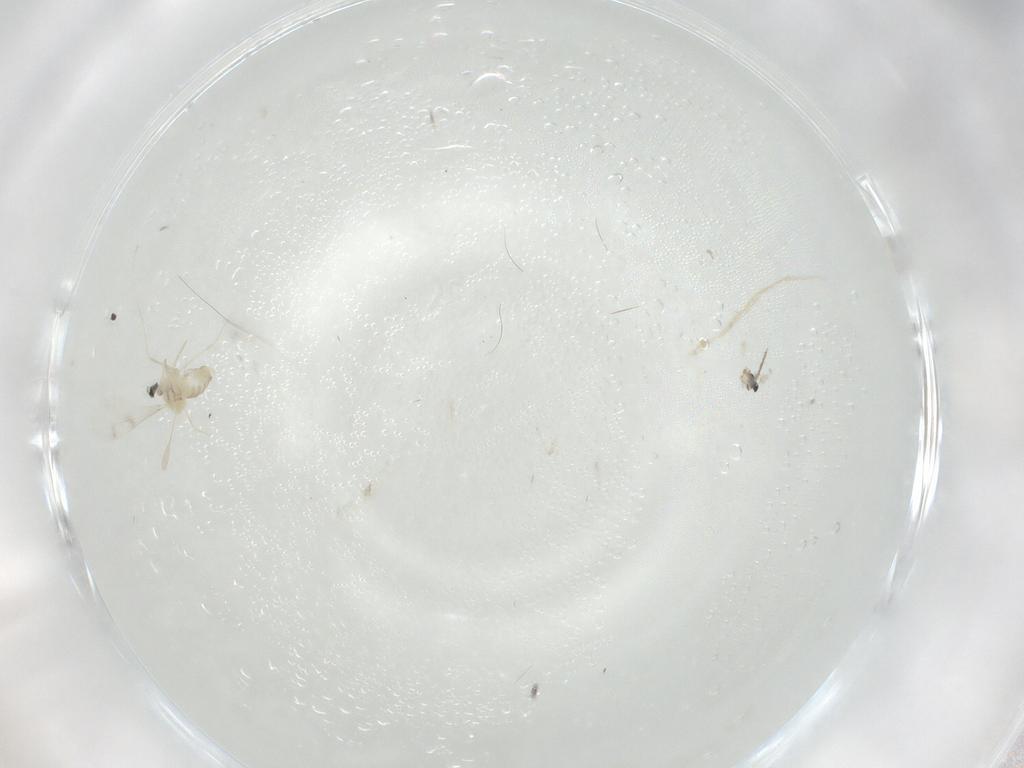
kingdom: Animalia
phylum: Arthropoda
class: Insecta
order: Diptera
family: Cecidomyiidae
